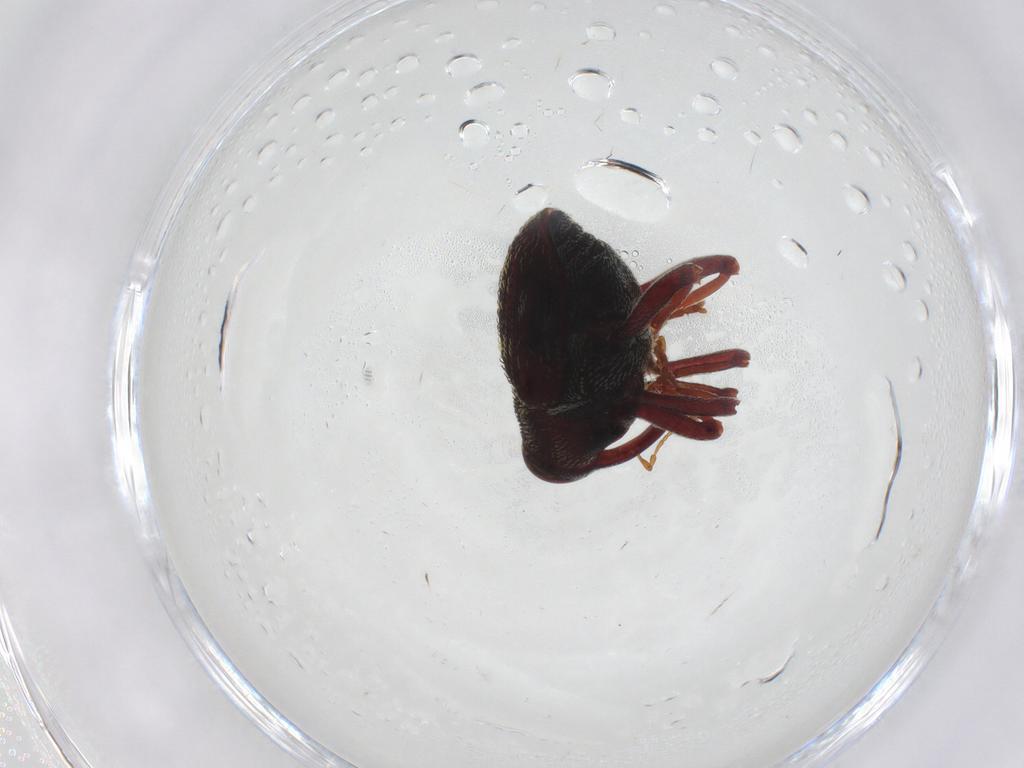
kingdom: Animalia
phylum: Arthropoda
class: Insecta
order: Coleoptera
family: Curculionidae
